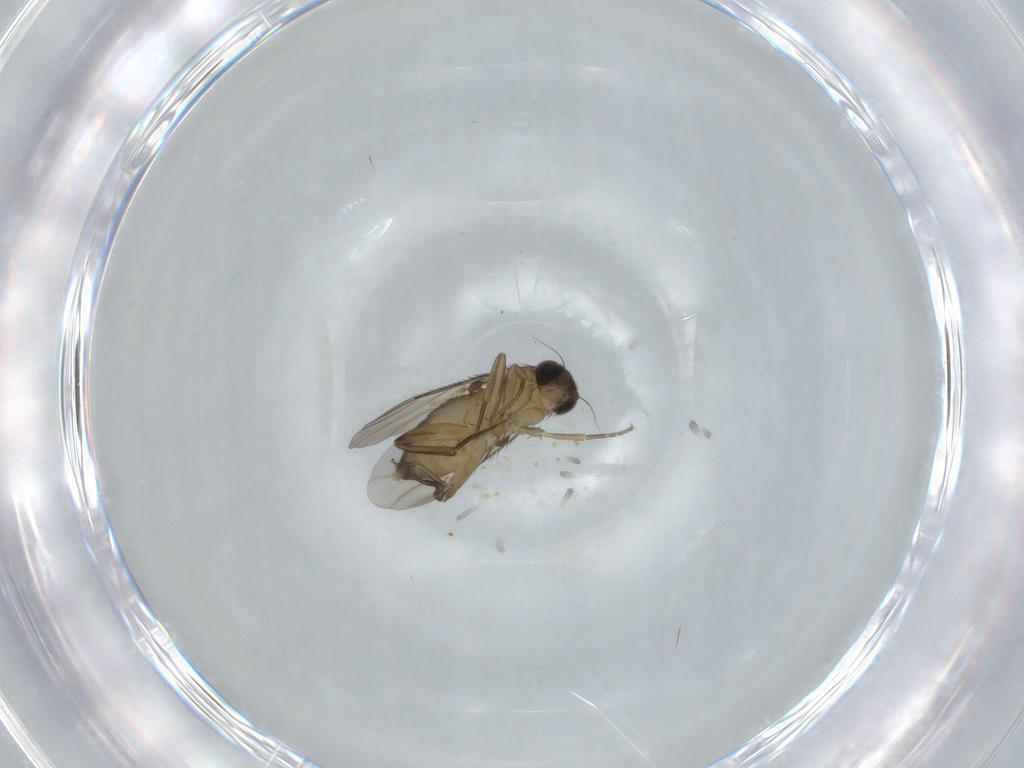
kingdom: Animalia
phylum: Arthropoda
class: Insecta
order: Diptera
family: Phoridae
